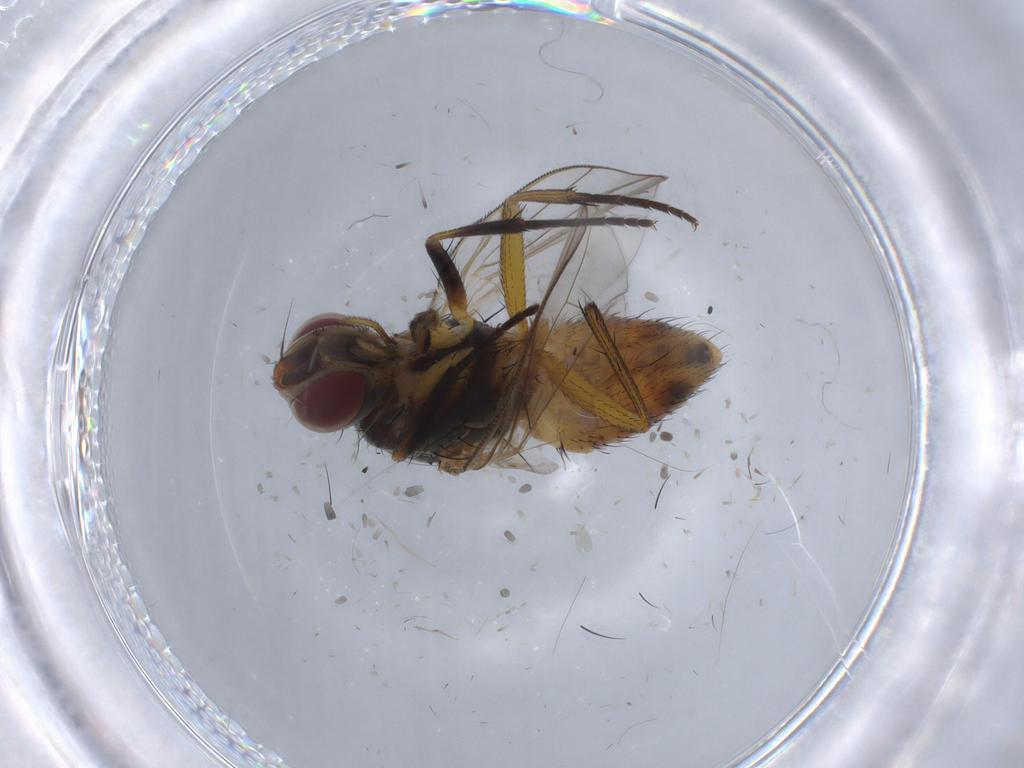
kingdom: Animalia
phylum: Arthropoda
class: Insecta
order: Diptera
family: Muscidae
